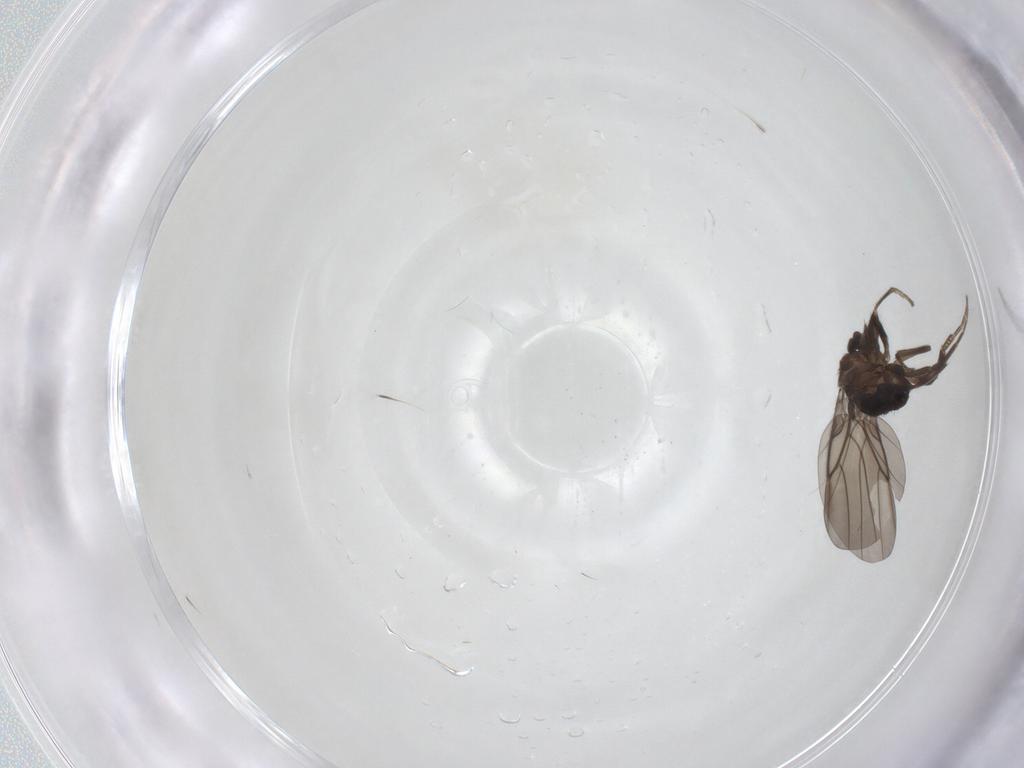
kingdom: Animalia
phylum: Arthropoda
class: Insecta
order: Diptera
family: Phoridae
